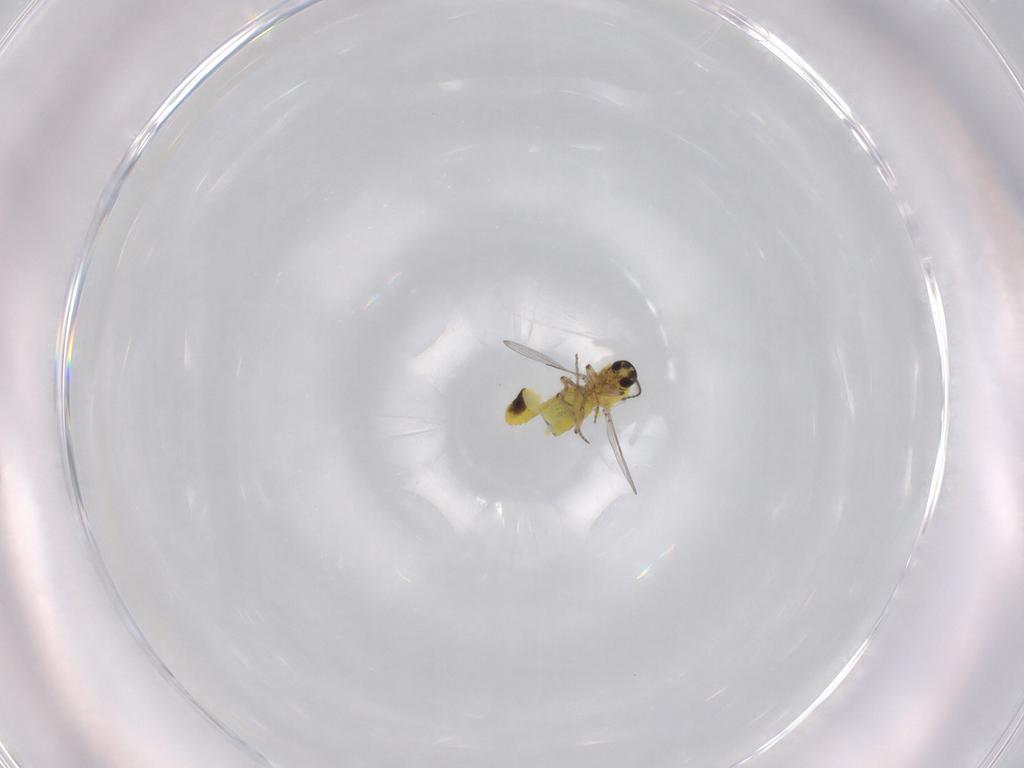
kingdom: Animalia
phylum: Arthropoda
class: Insecta
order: Diptera
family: Ceratopogonidae
